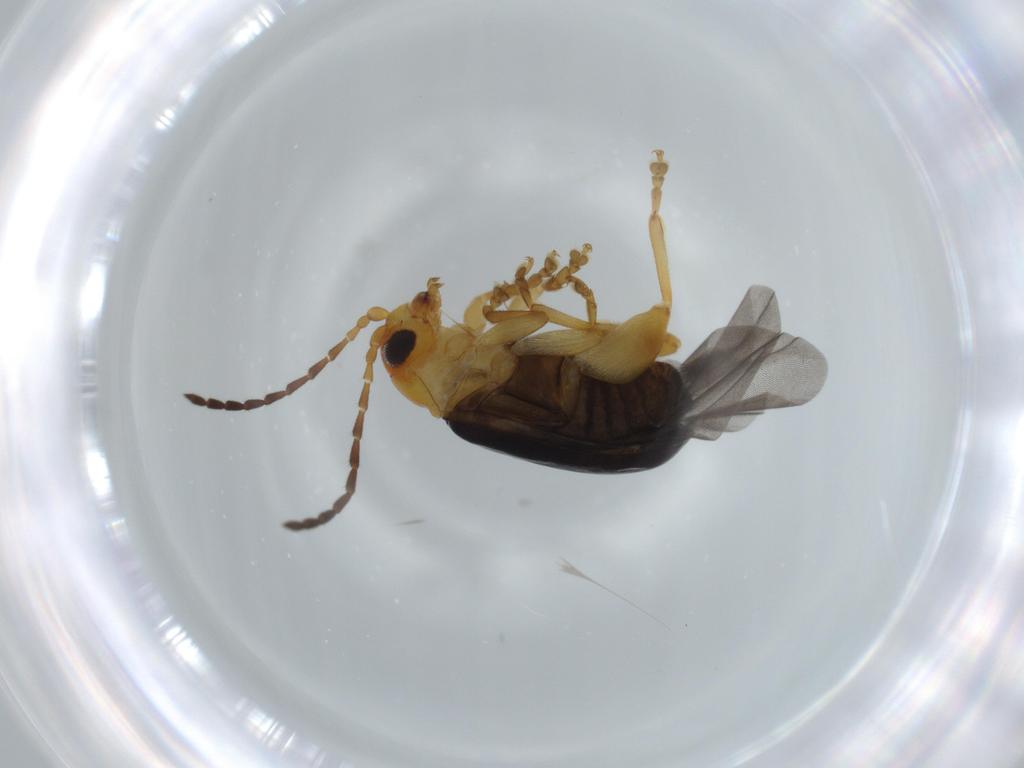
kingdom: Animalia
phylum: Arthropoda
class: Insecta
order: Coleoptera
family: Chrysomelidae
